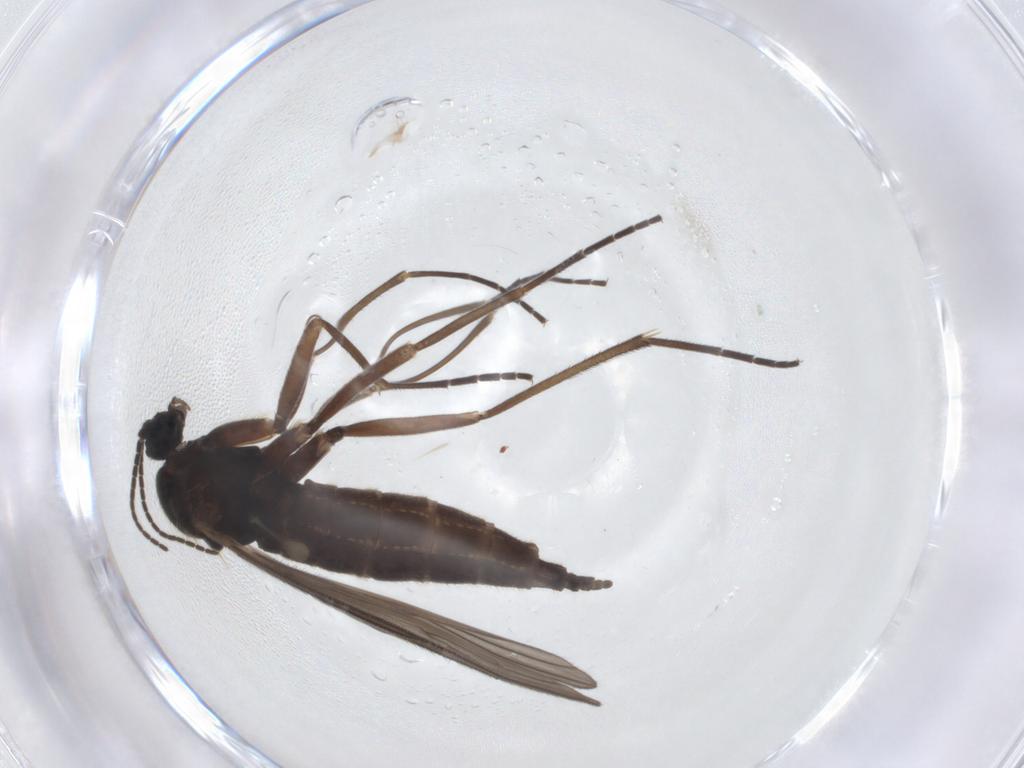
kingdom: Animalia
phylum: Arthropoda
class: Insecta
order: Diptera
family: Sciaridae
